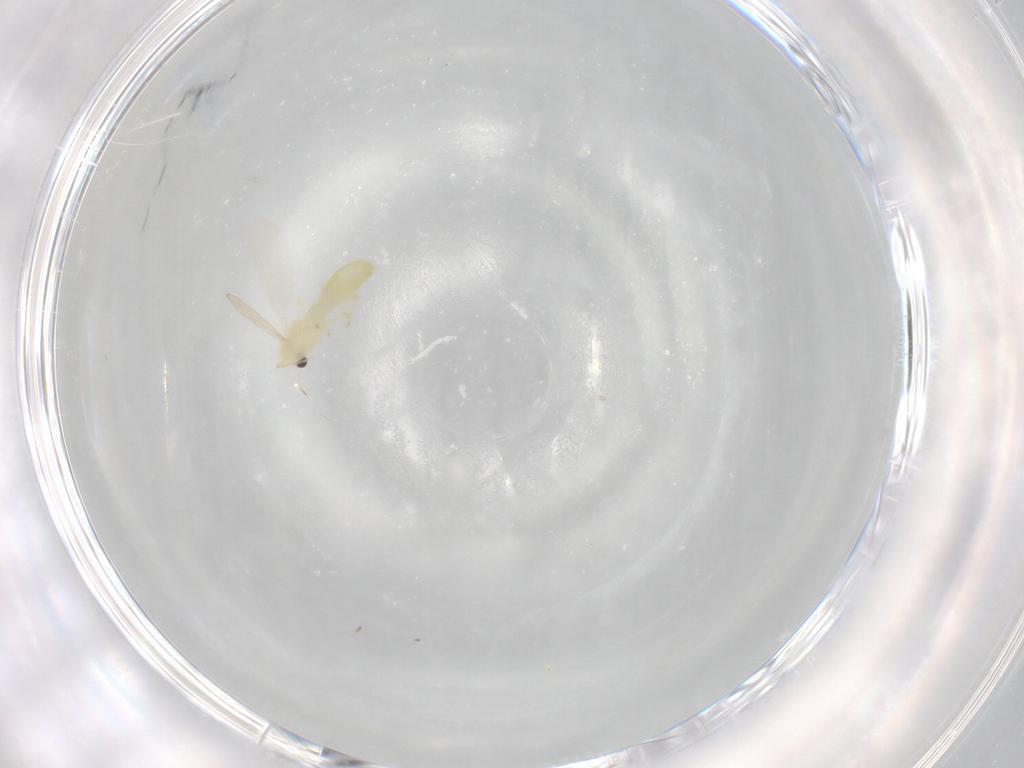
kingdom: Animalia
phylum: Arthropoda
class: Insecta
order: Diptera
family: Chironomidae
